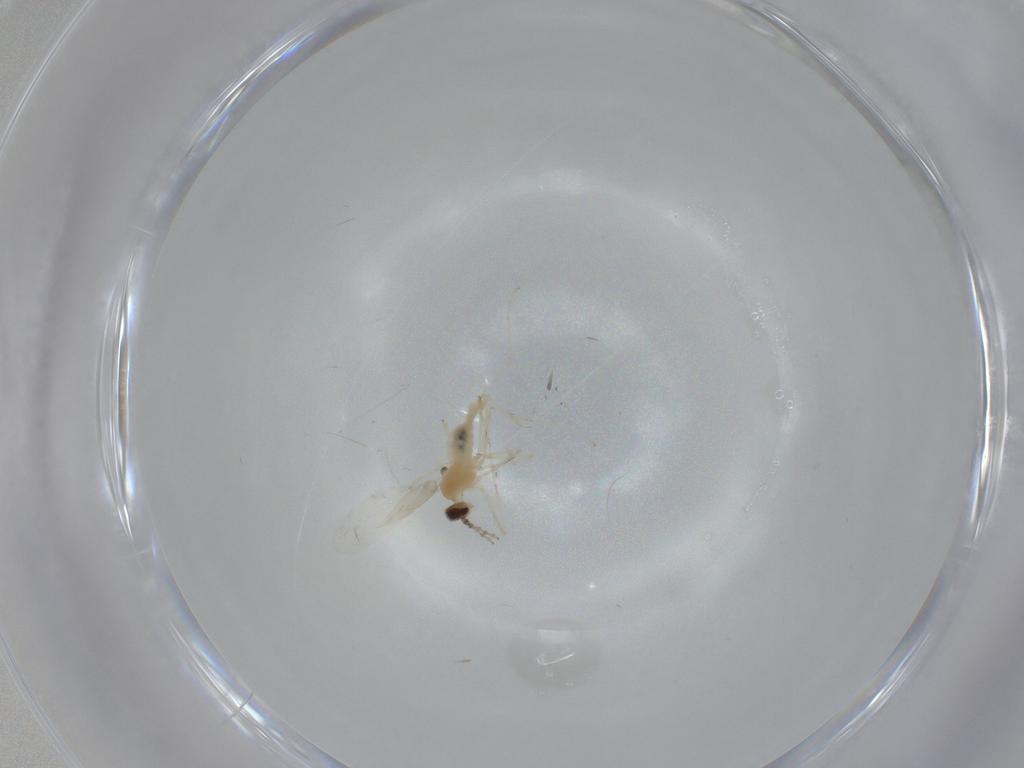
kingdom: Animalia
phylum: Arthropoda
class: Insecta
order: Diptera
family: Cecidomyiidae
